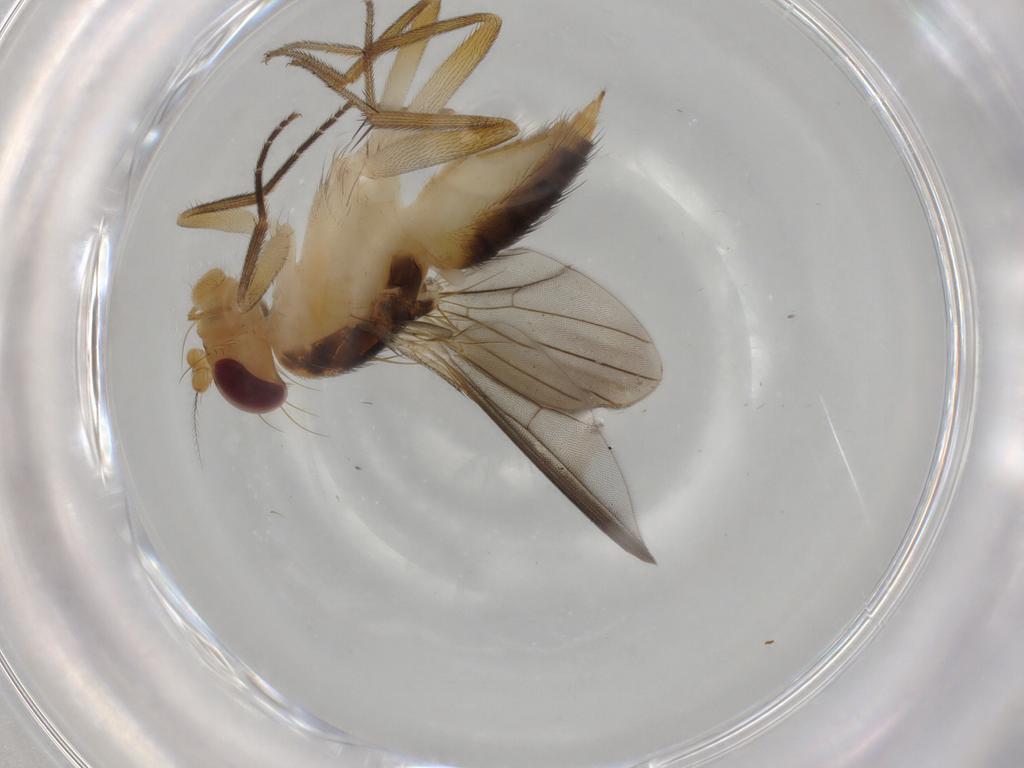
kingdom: Animalia
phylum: Arthropoda
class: Insecta
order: Diptera
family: Agromyzidae
